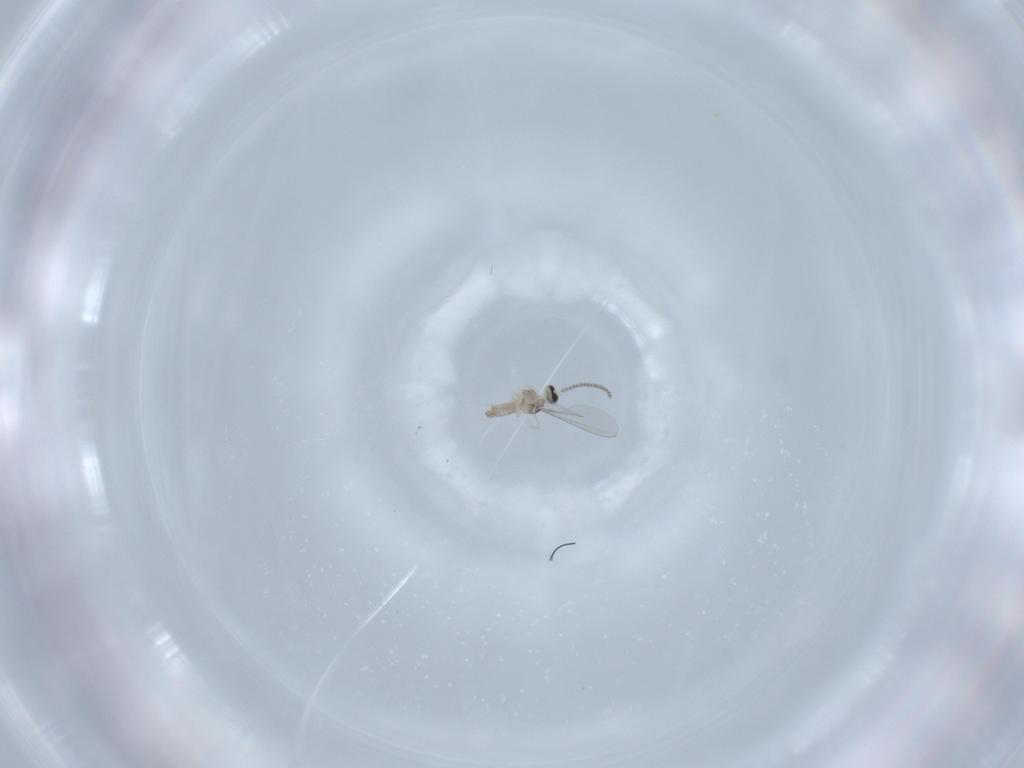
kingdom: Animalia
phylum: Arthropoda
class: Insecta
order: Diptera
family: Cecidomyiidae
